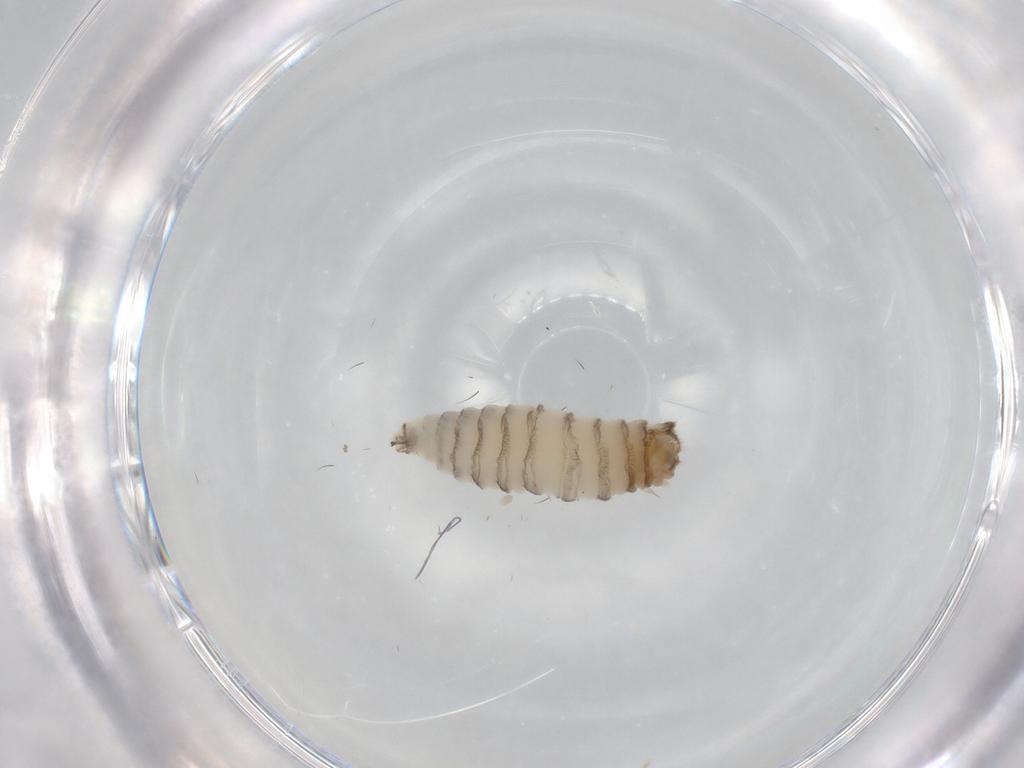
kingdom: Animalia
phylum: Arthropoda
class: Insecta
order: Diptera
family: Sarcophagidae
